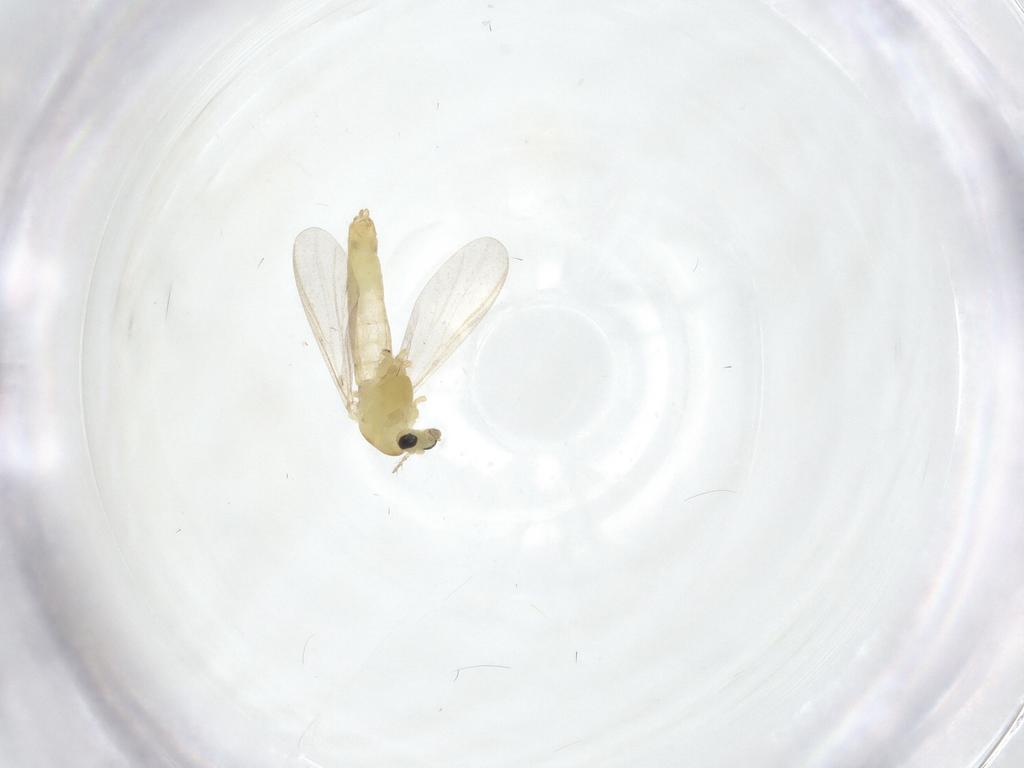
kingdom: Animalia
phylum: Arthropoda
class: Insecta
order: Diptera
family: Chironomidae
